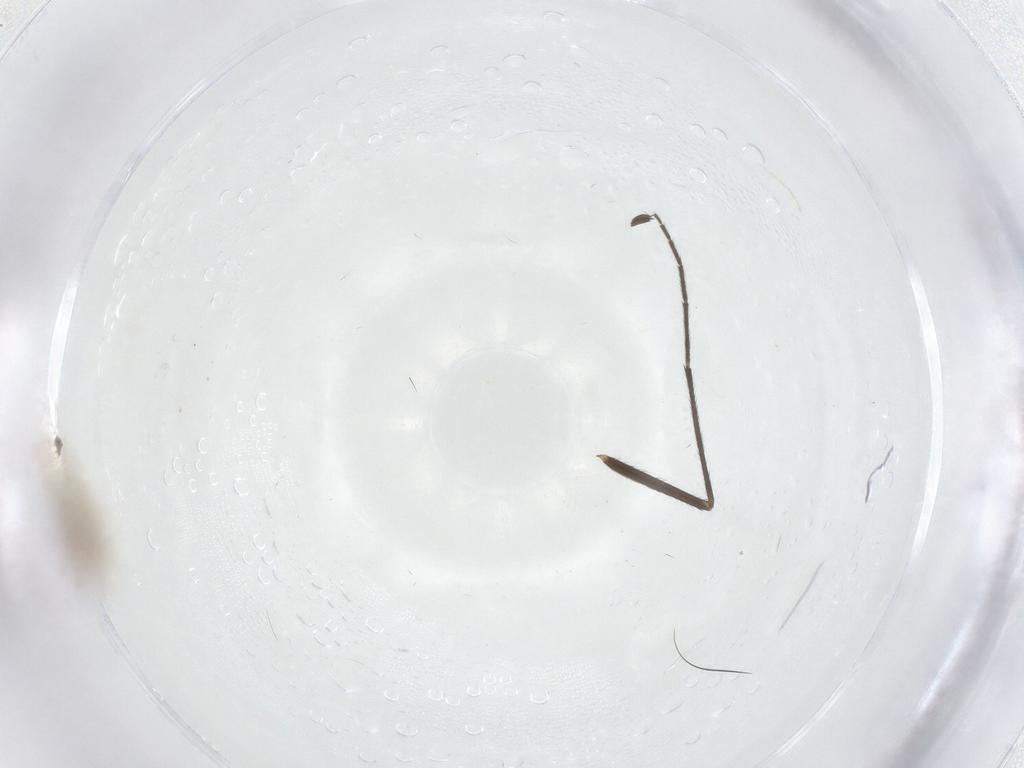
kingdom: Animalia
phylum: Arthropoda
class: Insecta
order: Diptera
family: Chironomidae
